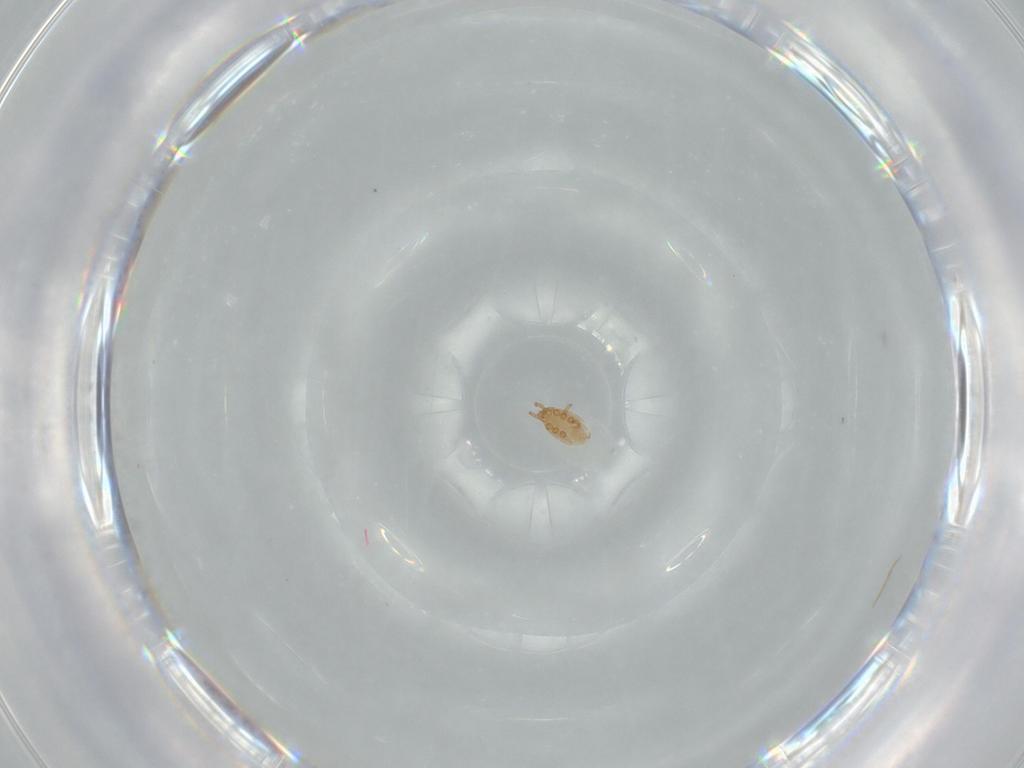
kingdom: Animalia
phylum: Arthropoda
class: Arachnida
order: Mesostigmata
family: Dinychidae
